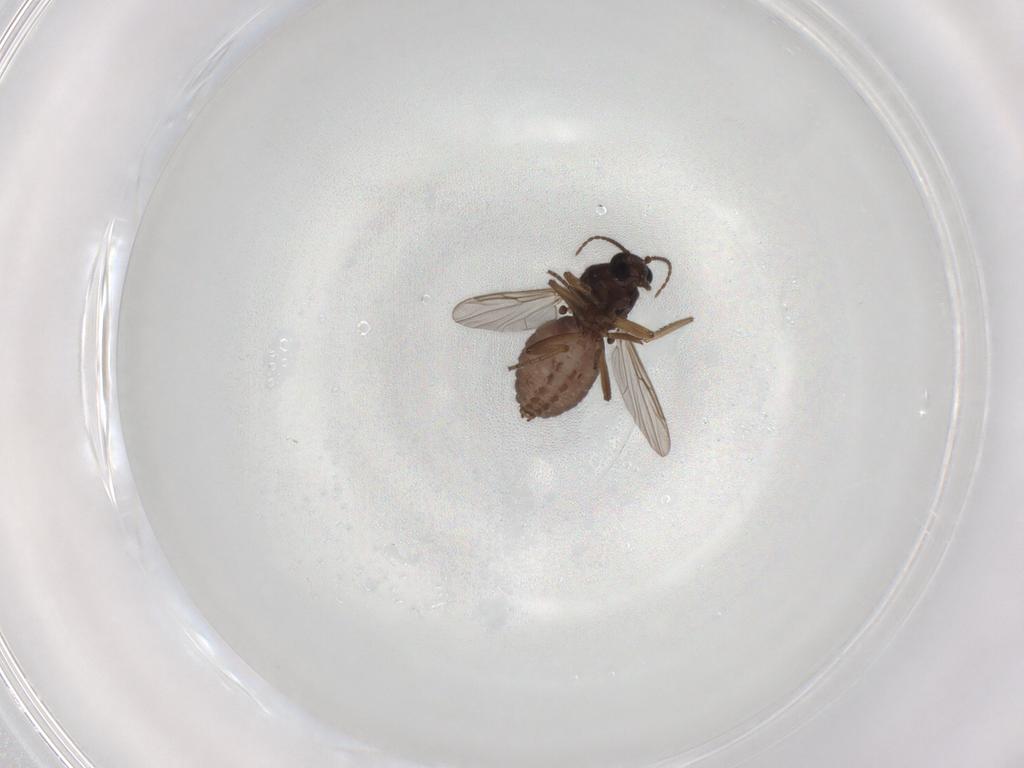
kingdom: Animalia
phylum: Arthropoda
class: Insecta
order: Diptera
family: Ceratopogonidae
